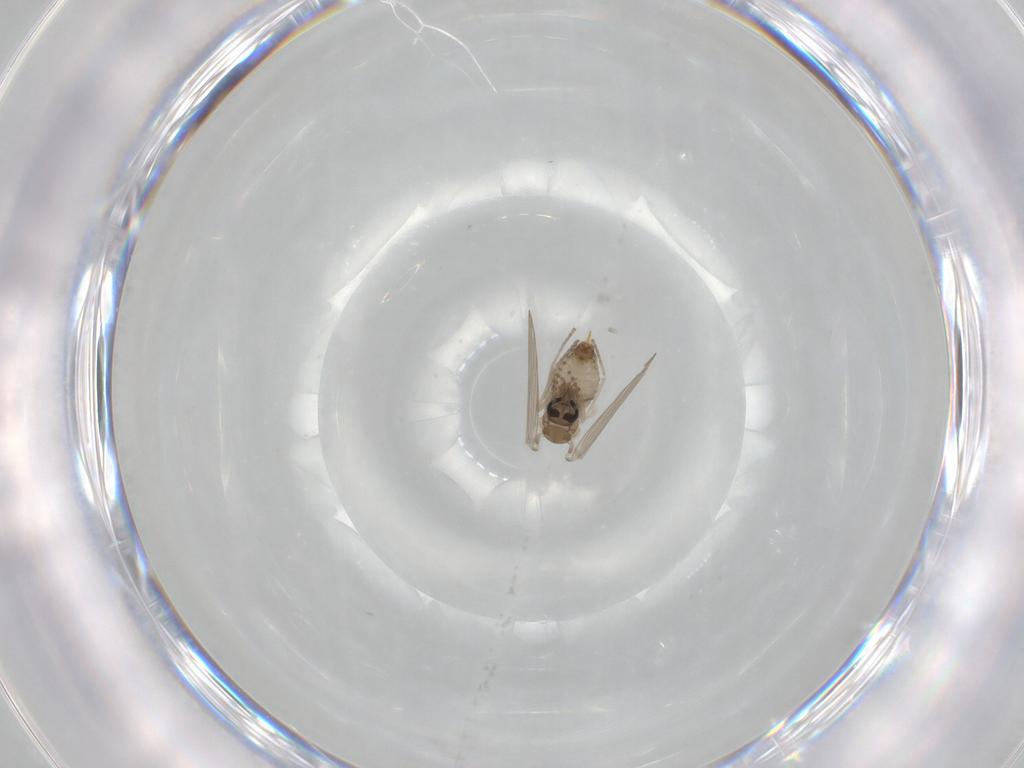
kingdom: Animalia
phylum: Arthropoda
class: Insecta
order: Diptera
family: Psychodidae
